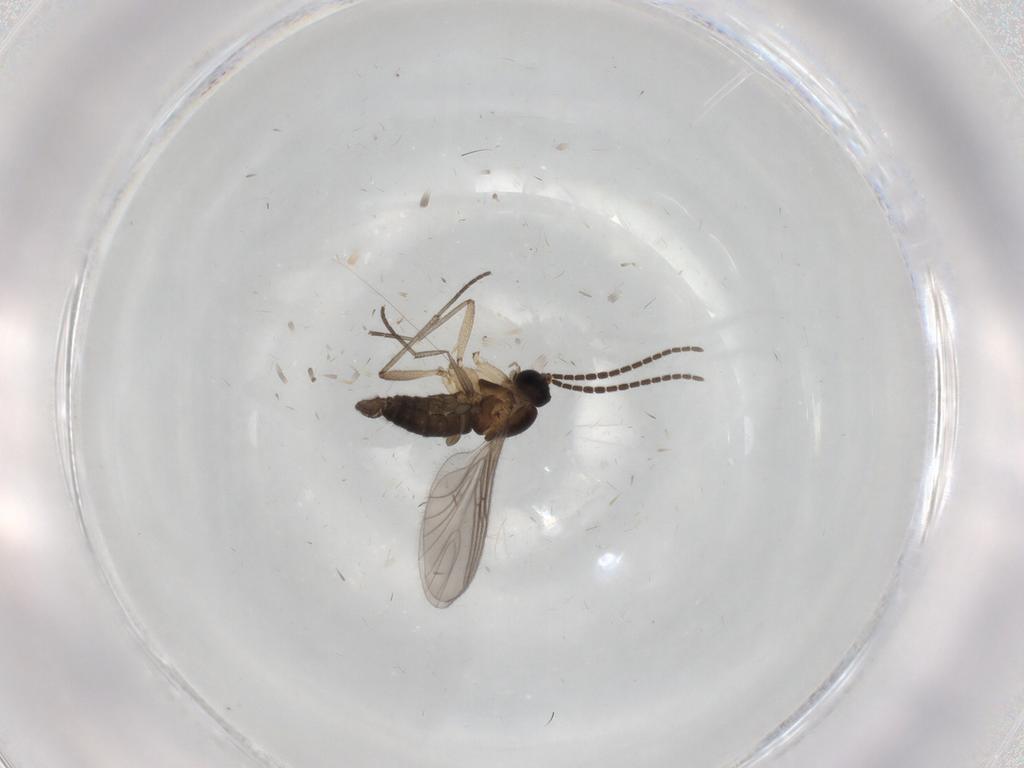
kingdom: Animalia
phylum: Arthropoda
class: Insecta
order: Diptera
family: Sciaridae
